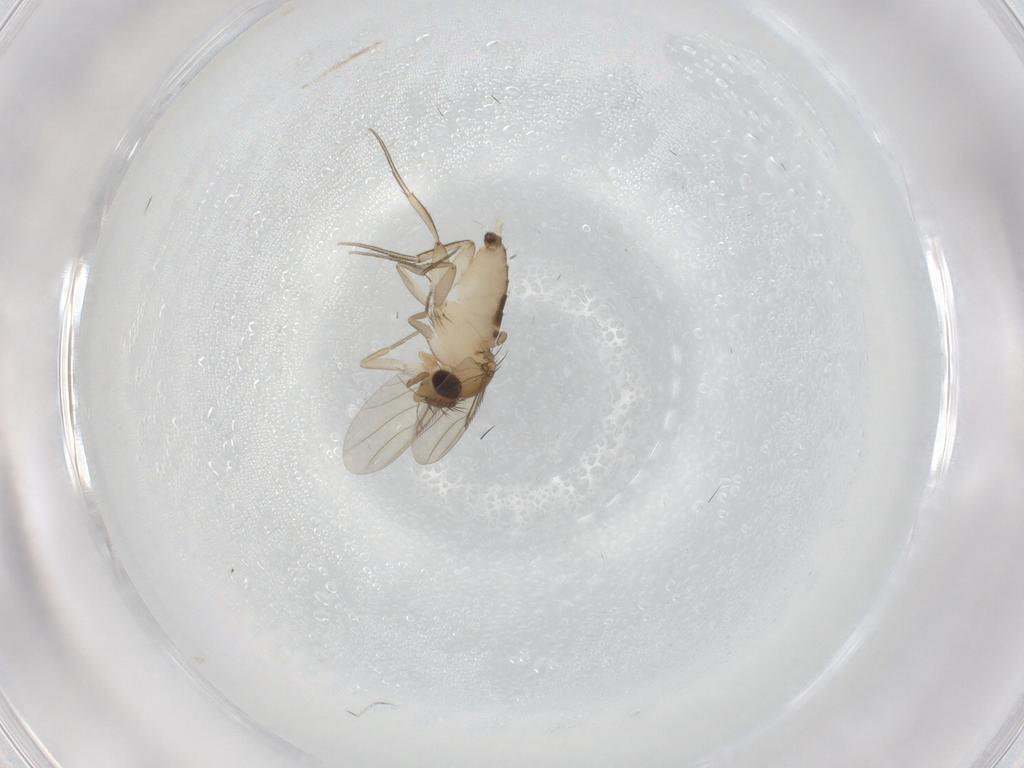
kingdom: Animalia
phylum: Arthropoda
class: Insecta
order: Diptera
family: Phoridae
